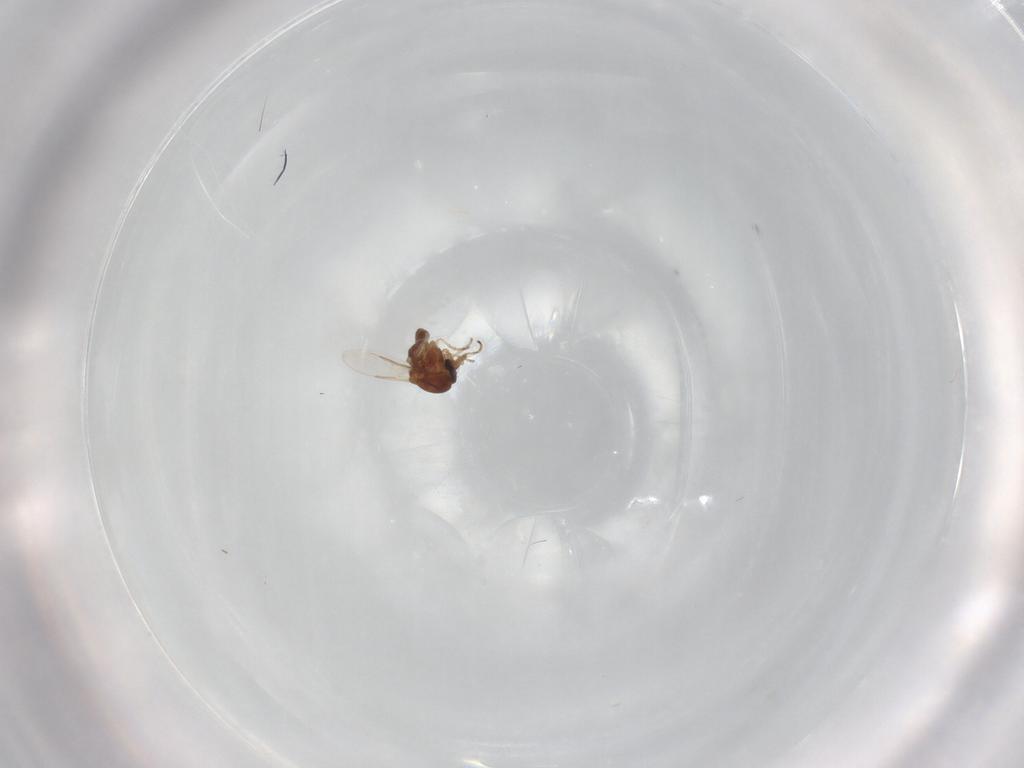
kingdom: Animalia
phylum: Arthropoda
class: Insecta
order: Diptera
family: Ceratopogonidae
